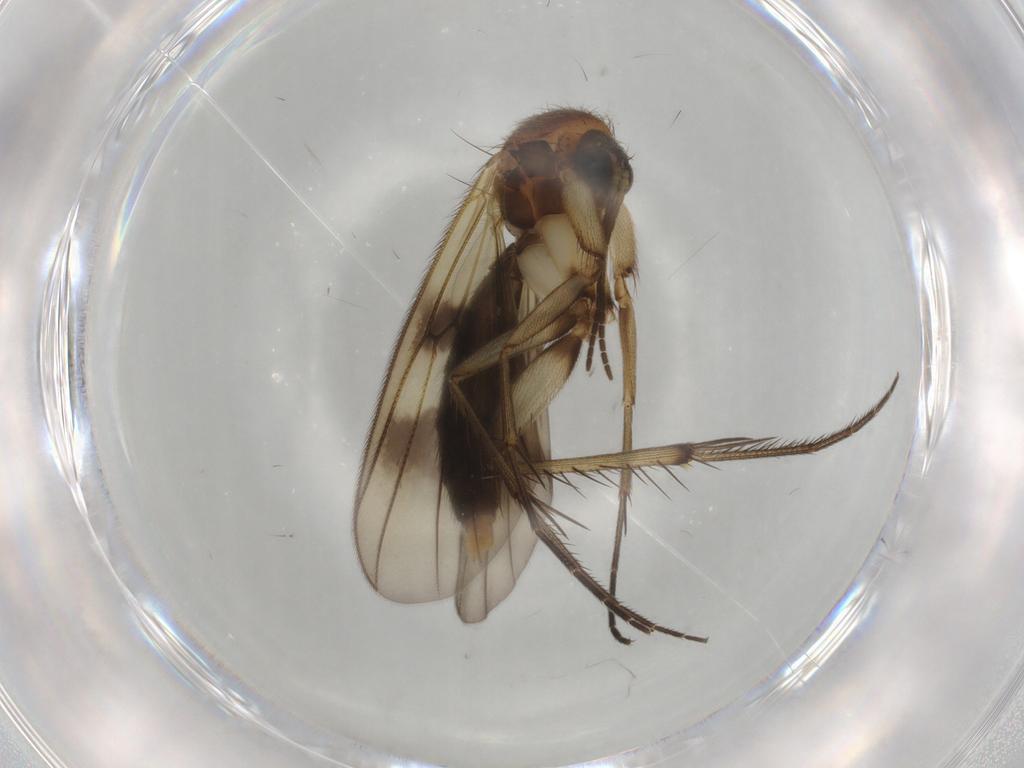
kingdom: Animalia
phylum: Arthropoda
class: Insecta
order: Diptera
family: Mycetophilidae
